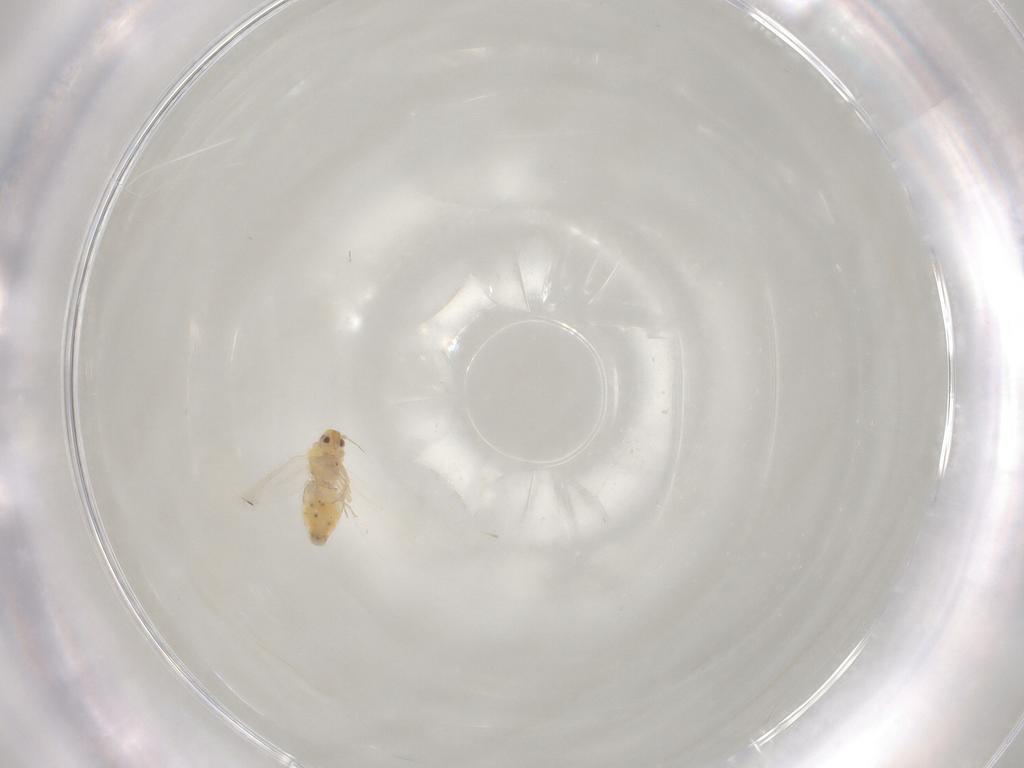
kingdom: Animalia
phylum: Arthropoda
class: Insecta
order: Hemiptera
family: Aleyrodidae
